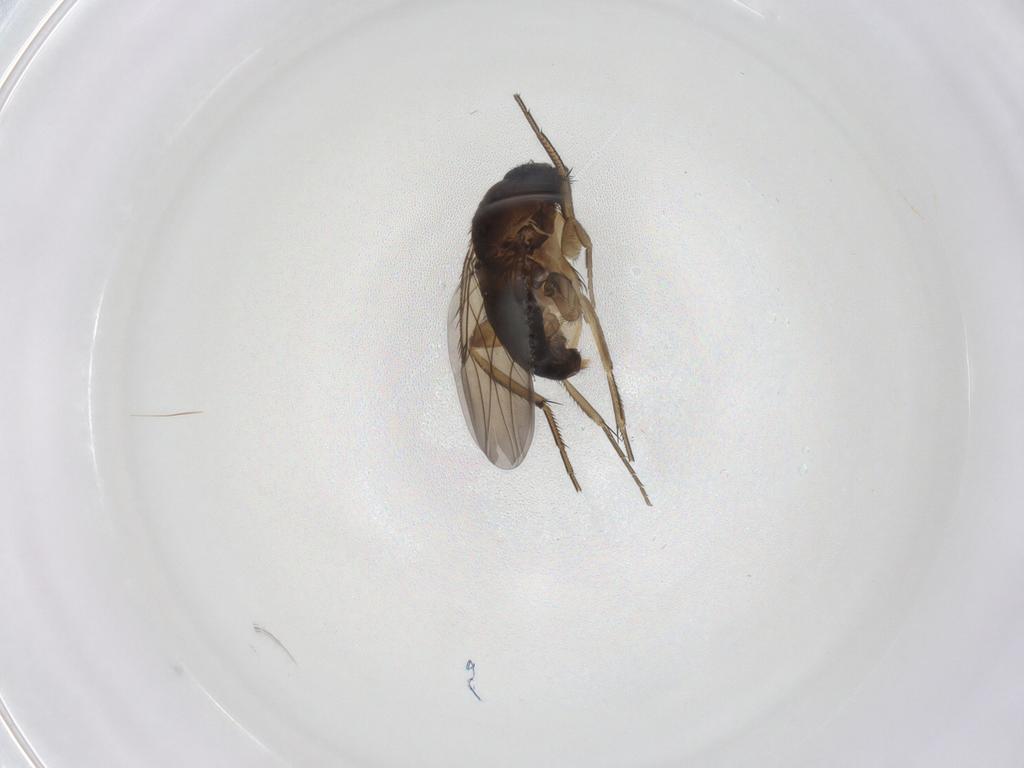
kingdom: Animalia
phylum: Arthropoda
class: Insecta
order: Diptera
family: Phoridae
